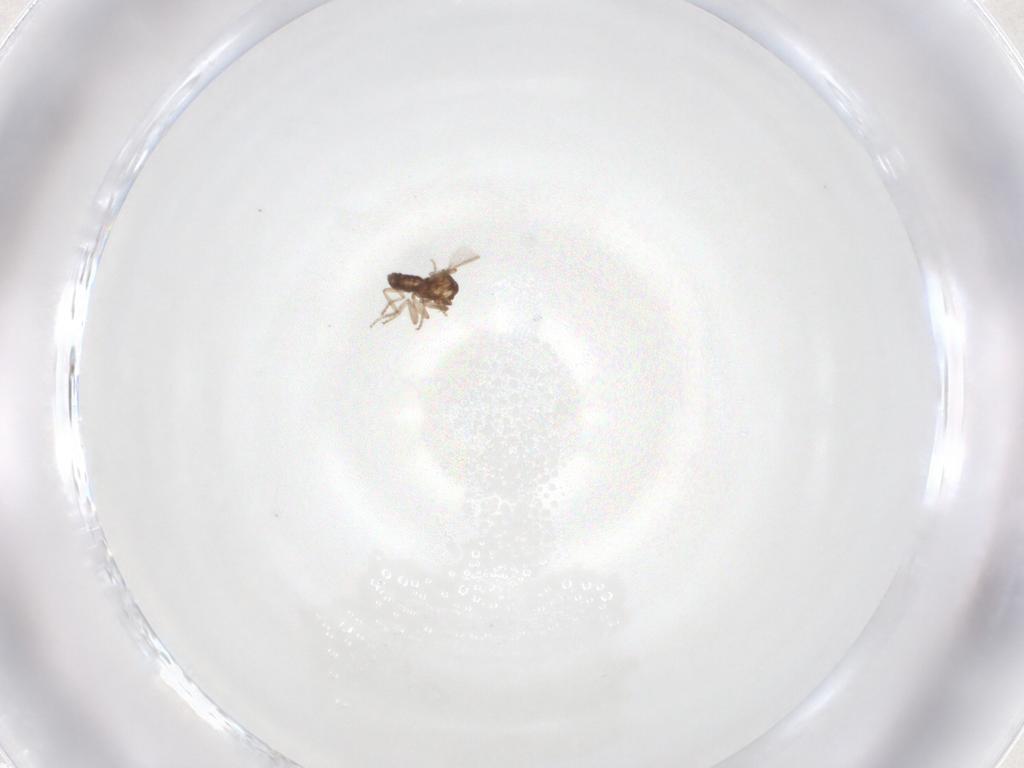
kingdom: Animalia
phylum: Arthropoda
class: Insecta
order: Diptera
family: Ceratopogonidae
